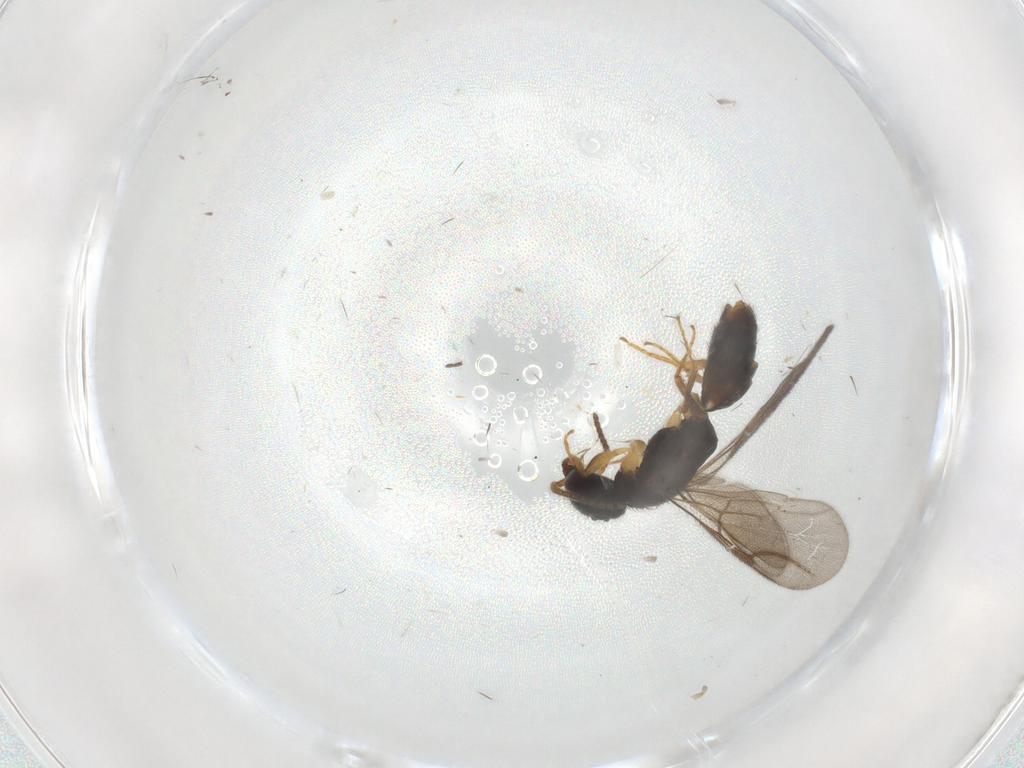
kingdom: Animalia
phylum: Arthropoda
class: Insecta
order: Hymenoptera
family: Bethylidae
